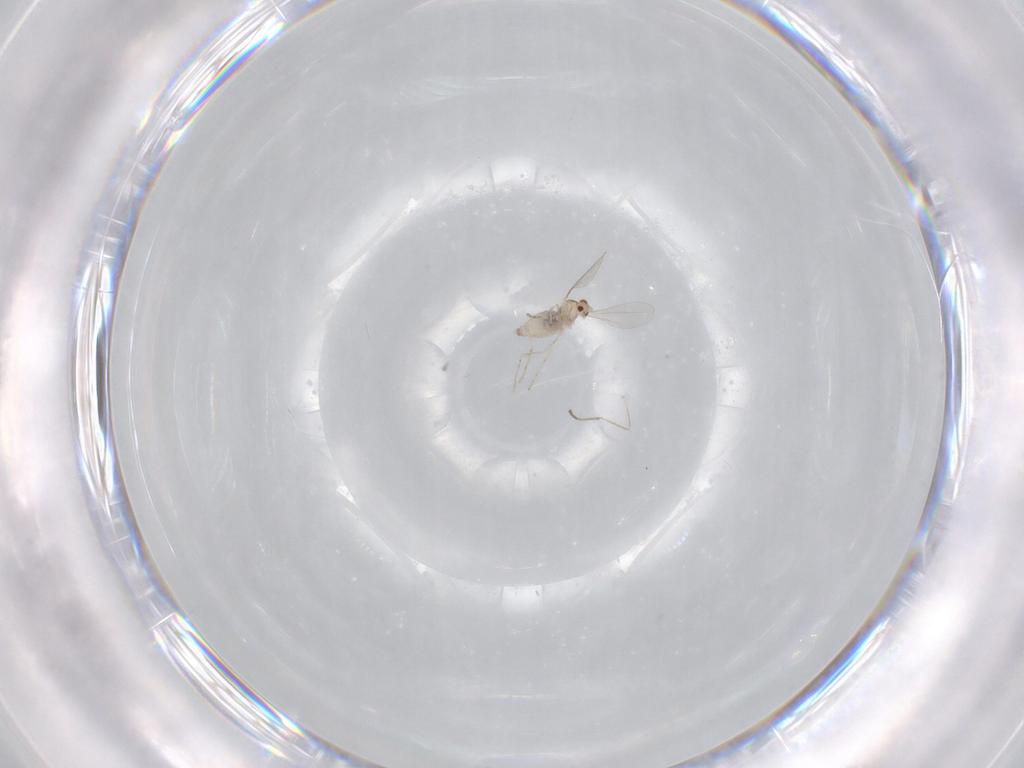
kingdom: Animalia
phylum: Arthropoda
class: Insecta
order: Diptera
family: Cecidomyiidae
